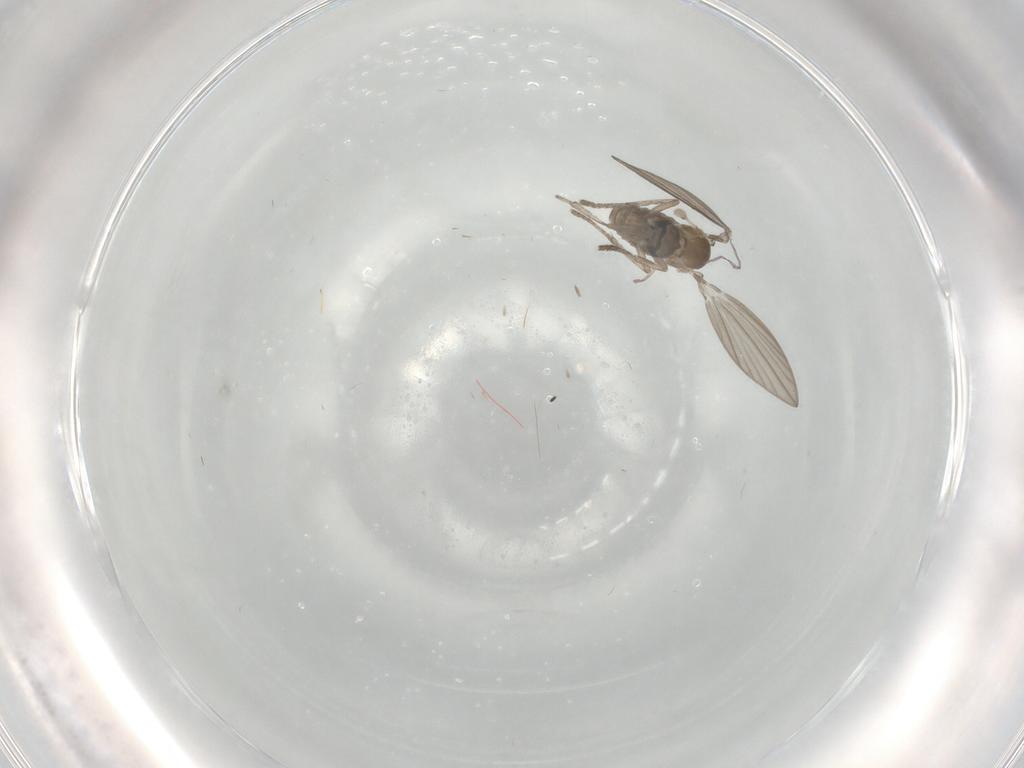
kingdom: Animalia
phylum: Arthropoda
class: Insecta
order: Diptera
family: Psychodidae
